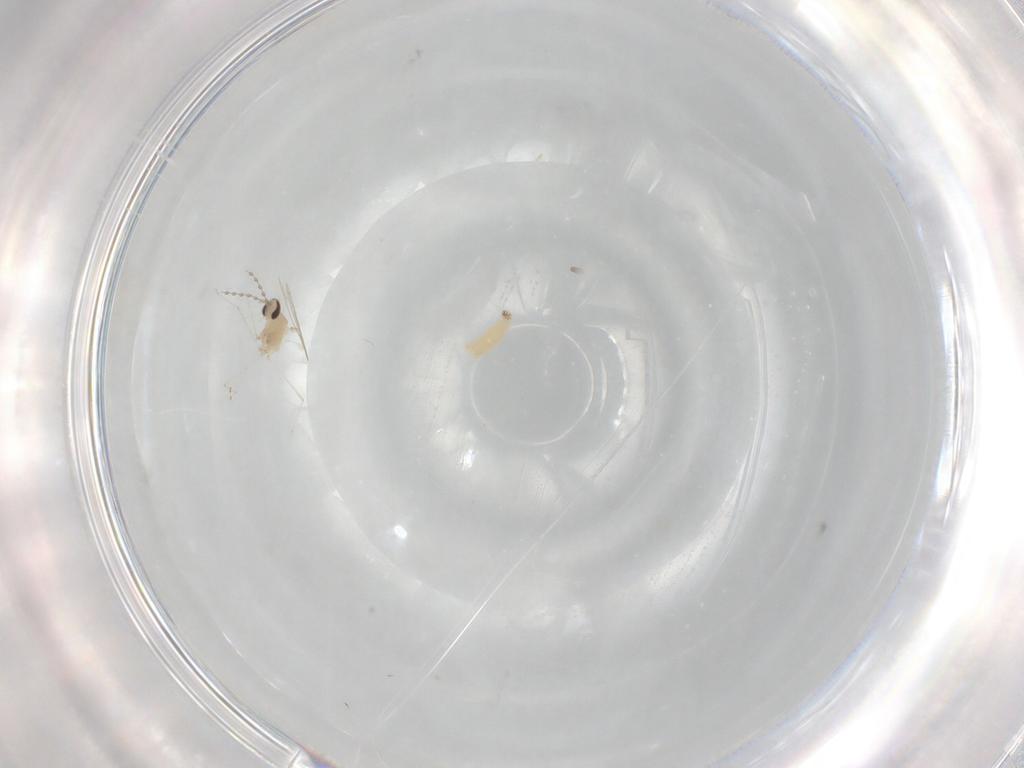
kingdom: Animalia
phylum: Arthropoda
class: Insecta
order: Diptera
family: Cecidomyiidae
